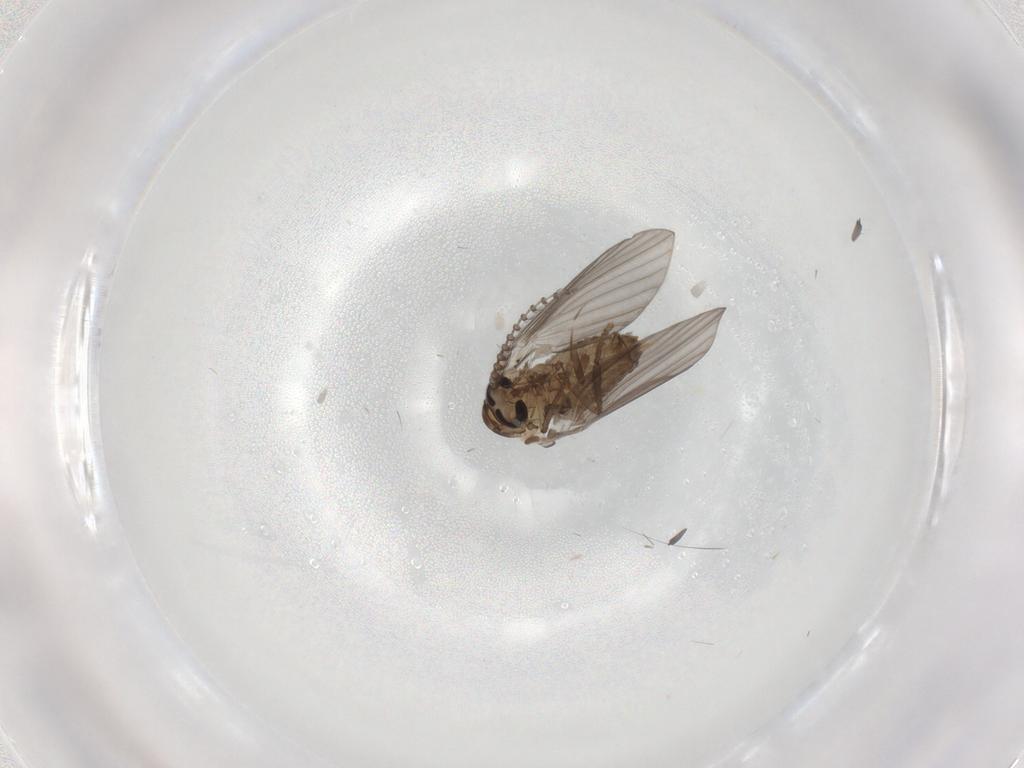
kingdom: Animalia
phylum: Arthropoda
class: Insecta
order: Diptera
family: Psychodidae
